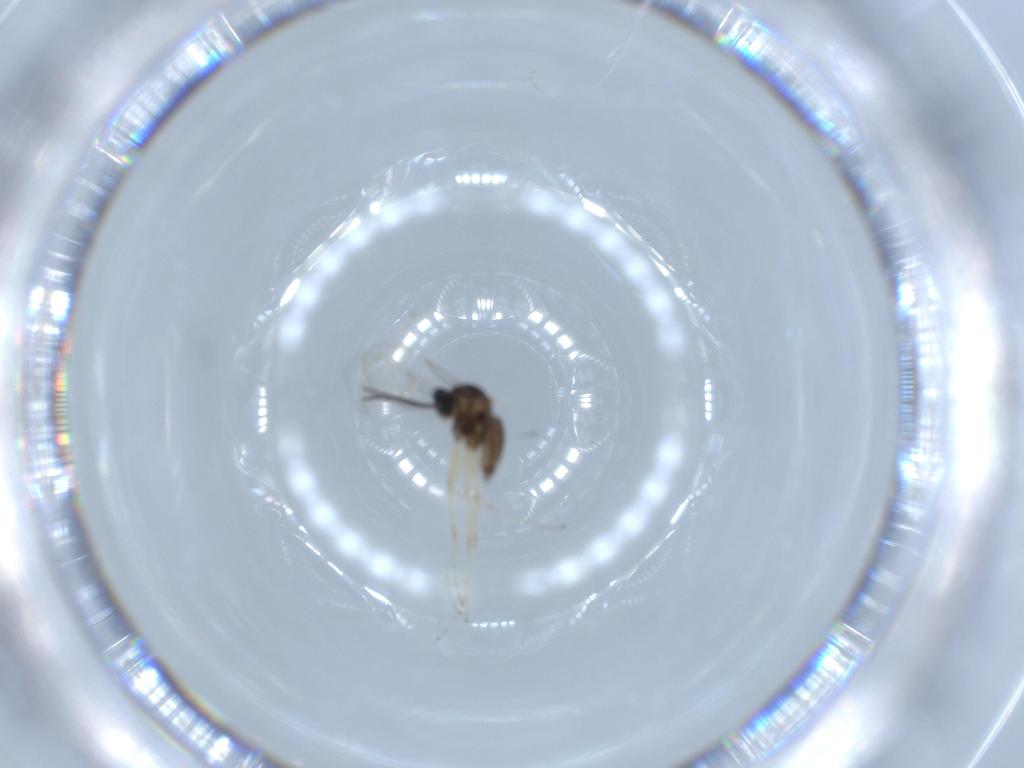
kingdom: Animalia
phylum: Arthropoda
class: Insecta
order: Diptera
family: Cecidomyiidae
